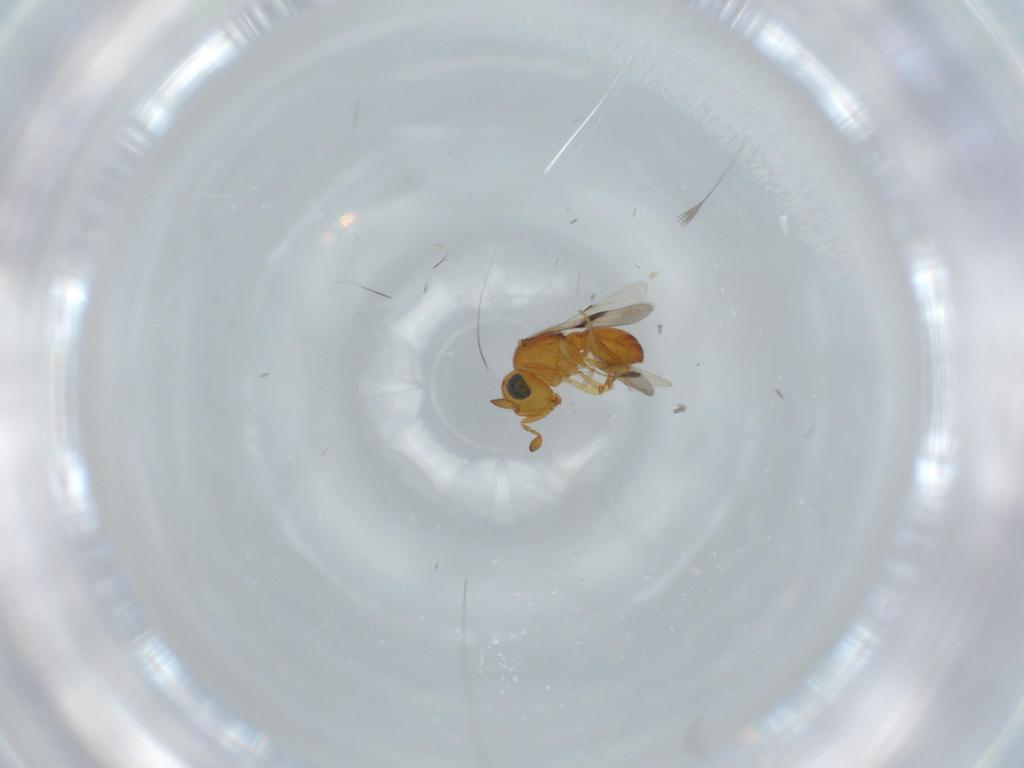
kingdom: Animalia
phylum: Arthropoda
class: Insecta
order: Hymenoptera
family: Scelionidae
